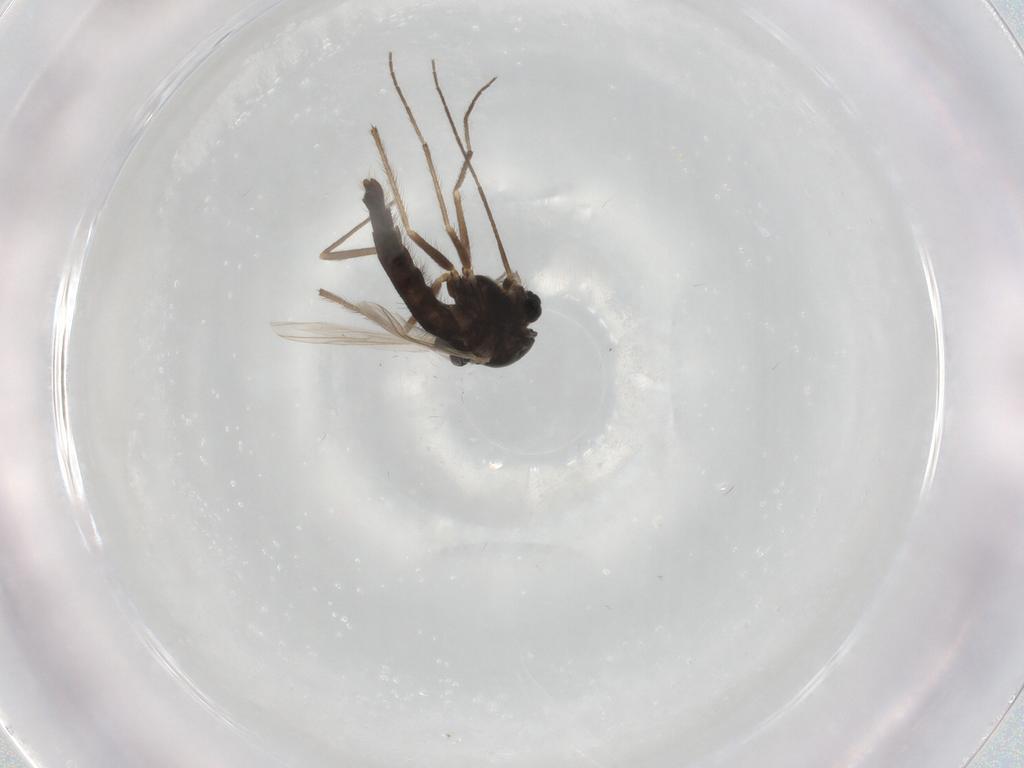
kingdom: Animalia
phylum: Arthropoda
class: Insecta
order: Diptera
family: Chironomidae
